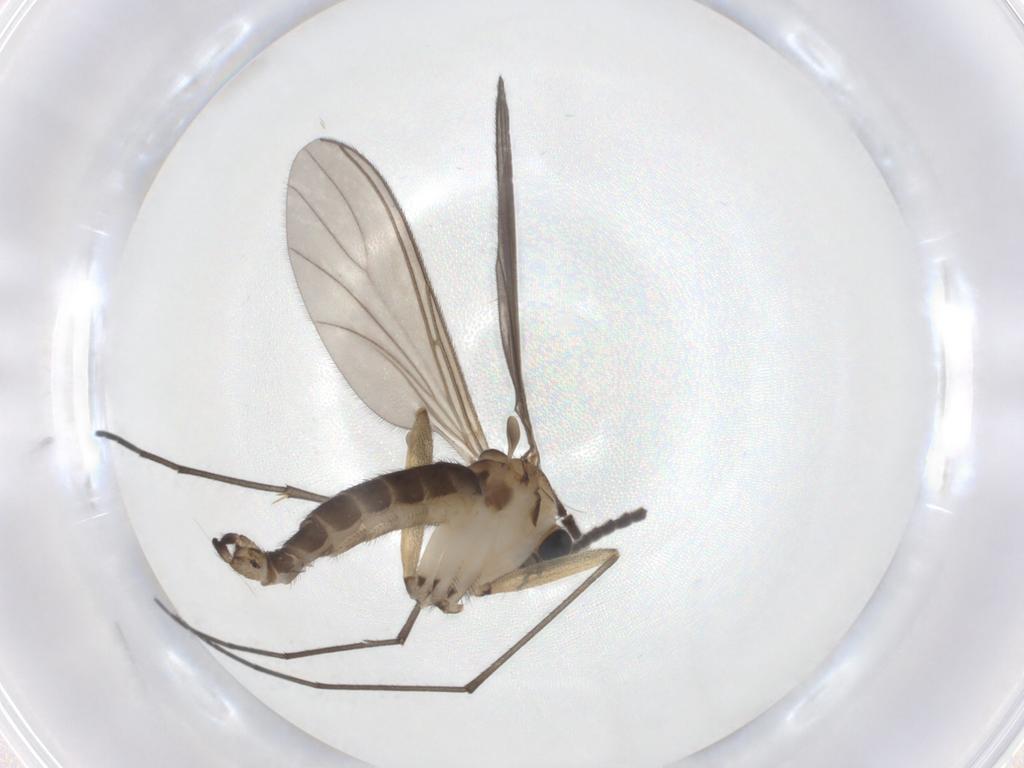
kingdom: Animalia
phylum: Arthropoda
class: Insecta
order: Diptera
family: Sciaridae
